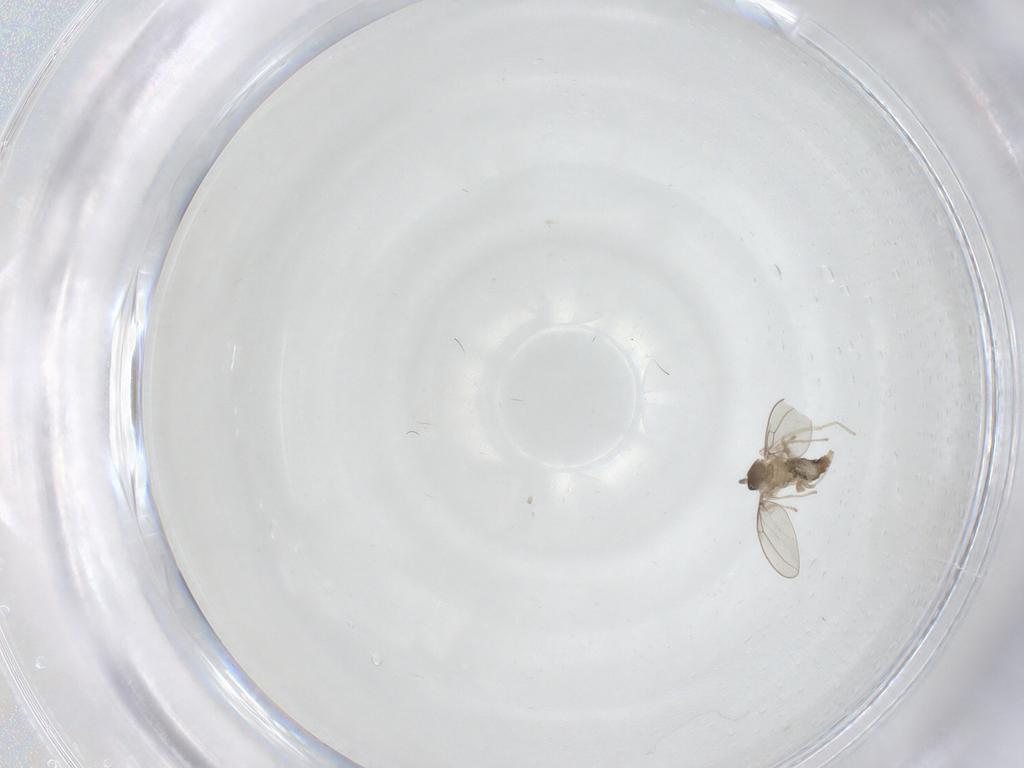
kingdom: Animalia
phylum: Arthropoda
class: Insecta
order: Diptera
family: Cecidomyiidae
